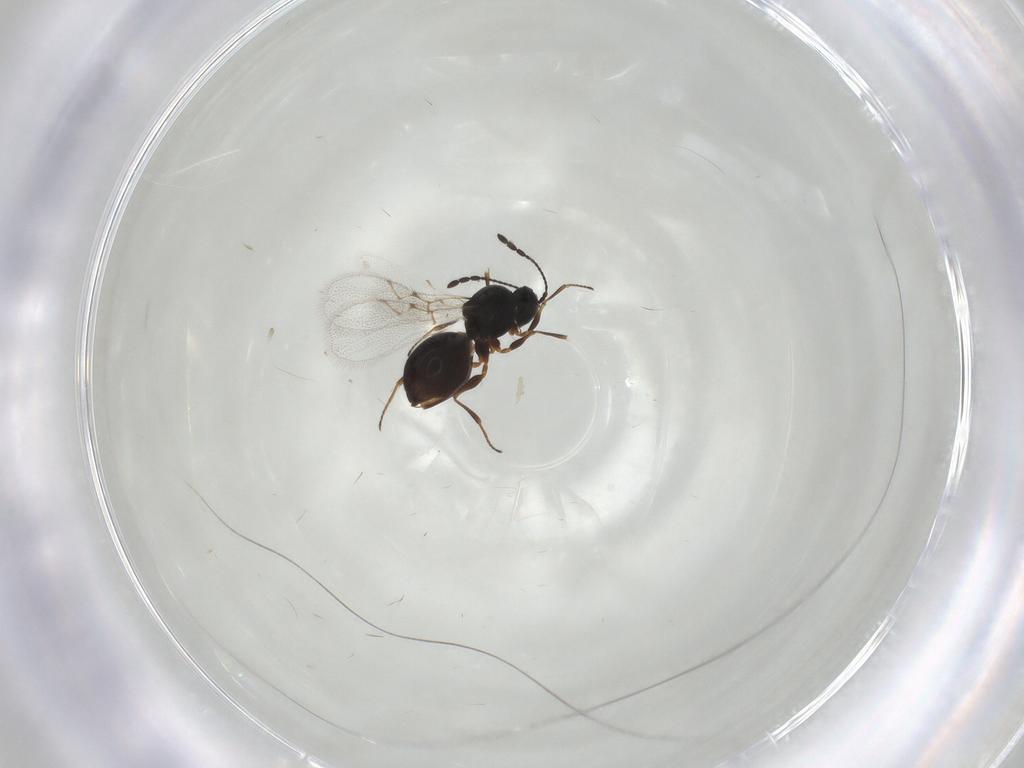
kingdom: Animalia
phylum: Arthropoda
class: Insecta
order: Hymenoptera
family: Figitidae
